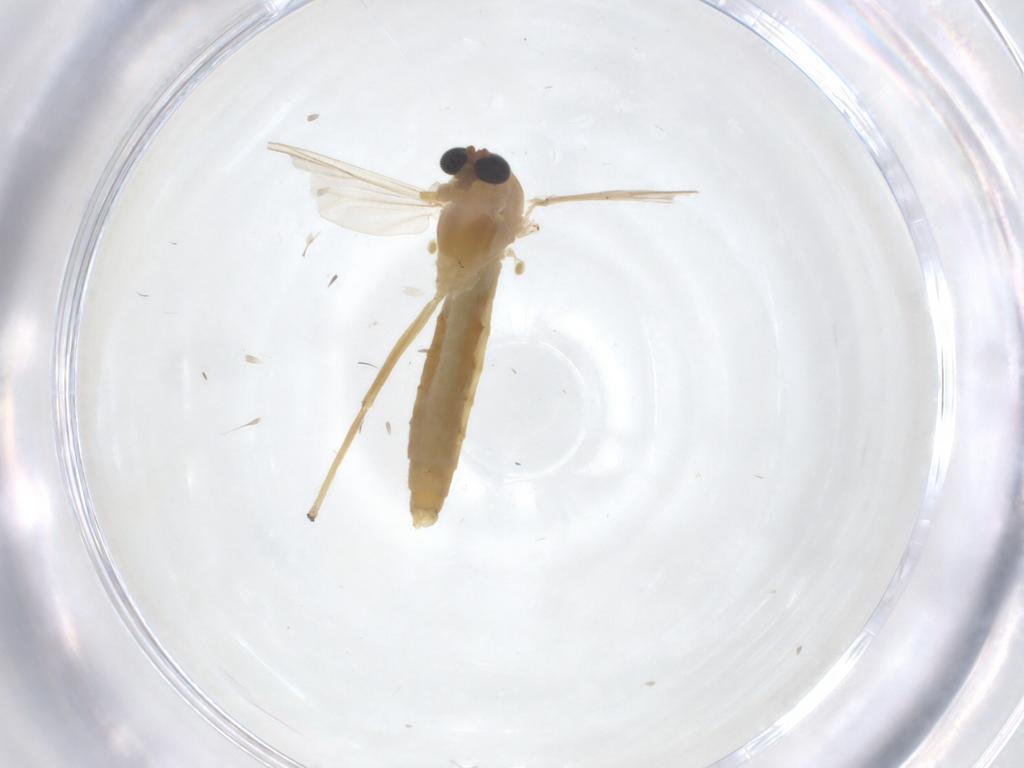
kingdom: Animalia
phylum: Arthropoda
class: Insecta
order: Diptera
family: Chironomidae
